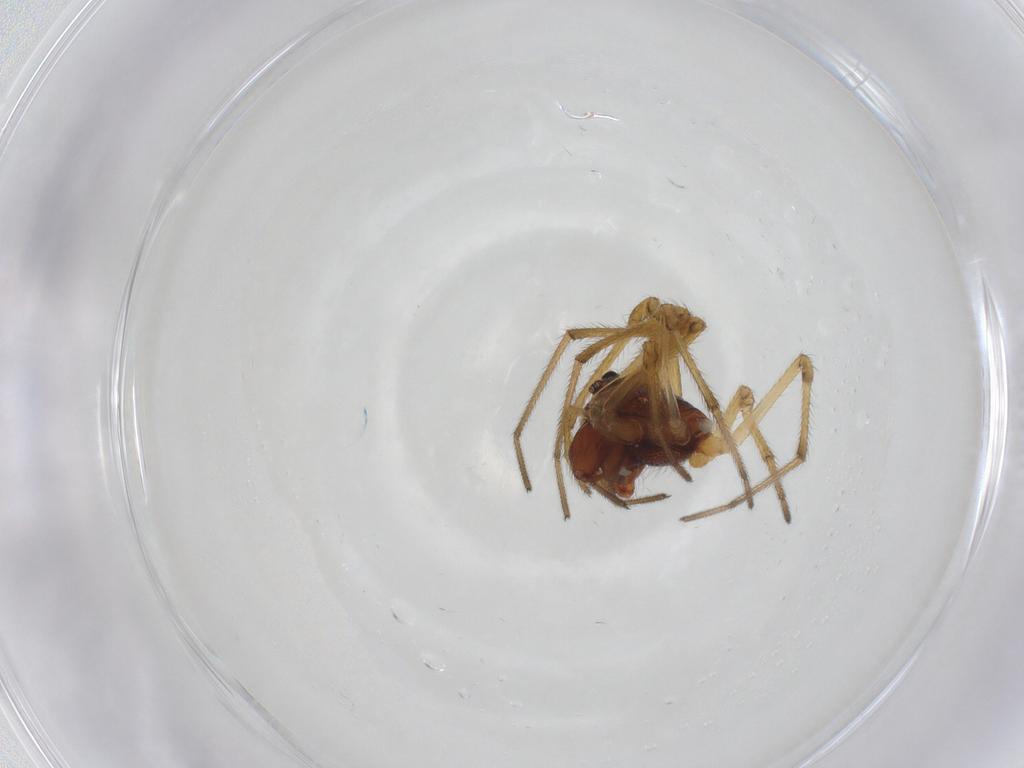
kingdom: Animalia
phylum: Arthropoda
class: Arachnida
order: Araneae
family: Tetragnathidae
